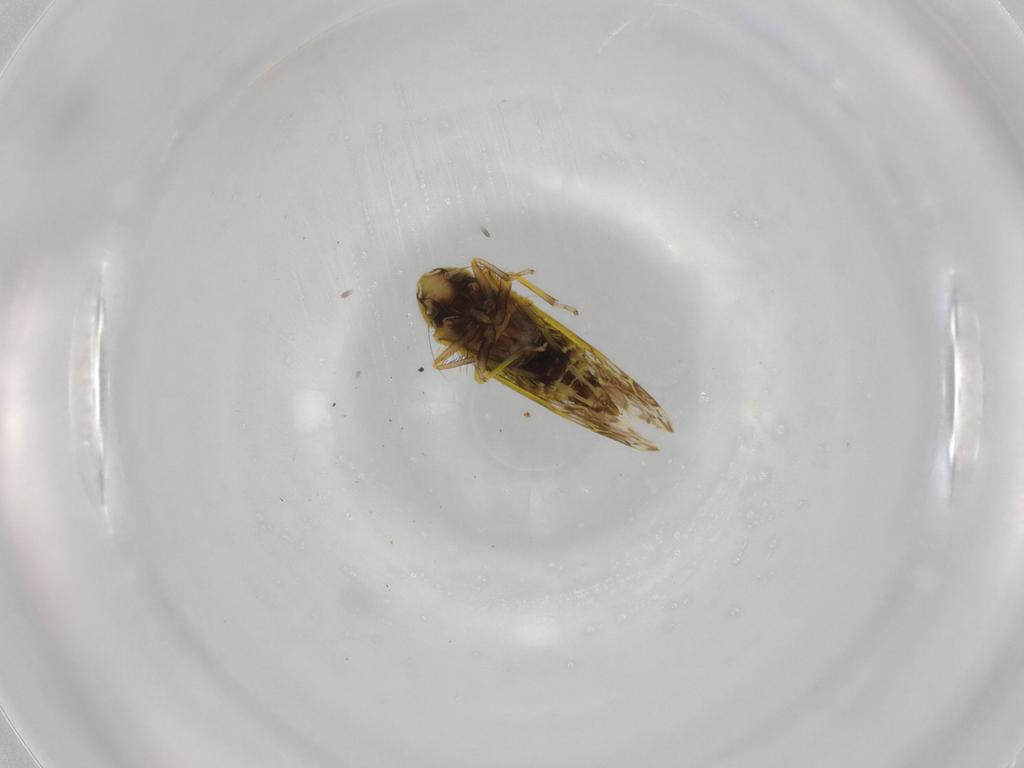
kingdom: Animalia
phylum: Arthropoda
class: Insecta
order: Hemiptera
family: Cicadellidae
